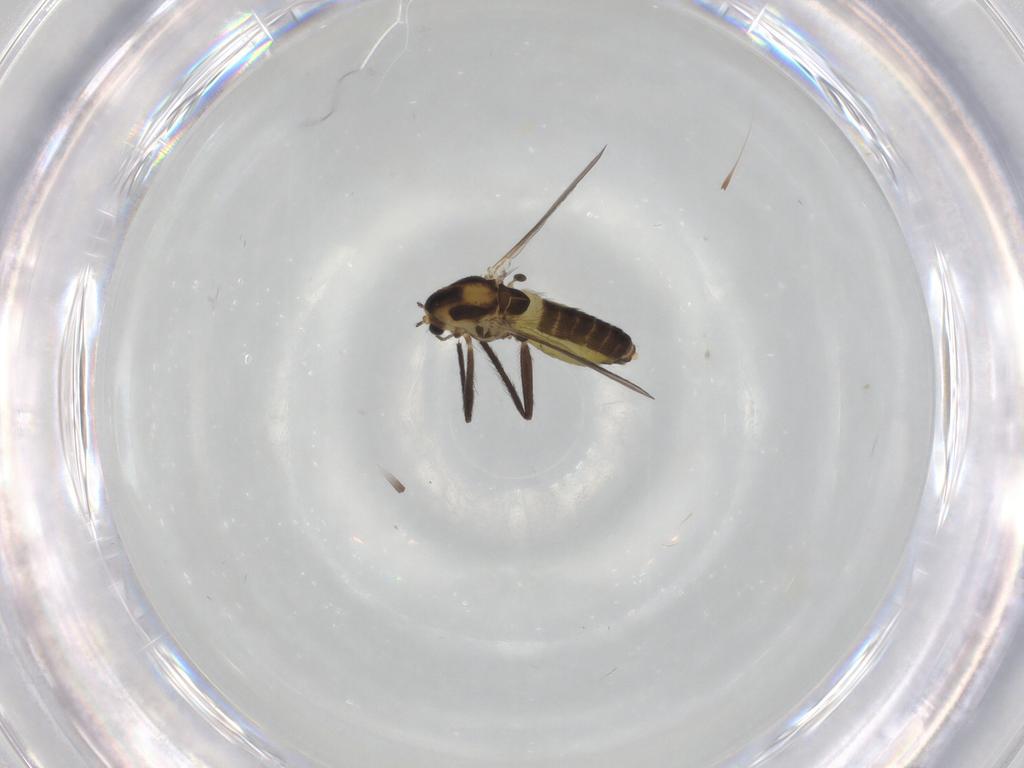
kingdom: Animalia
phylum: Arthropoda
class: Insecta
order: Diptera
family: Chironomidae
